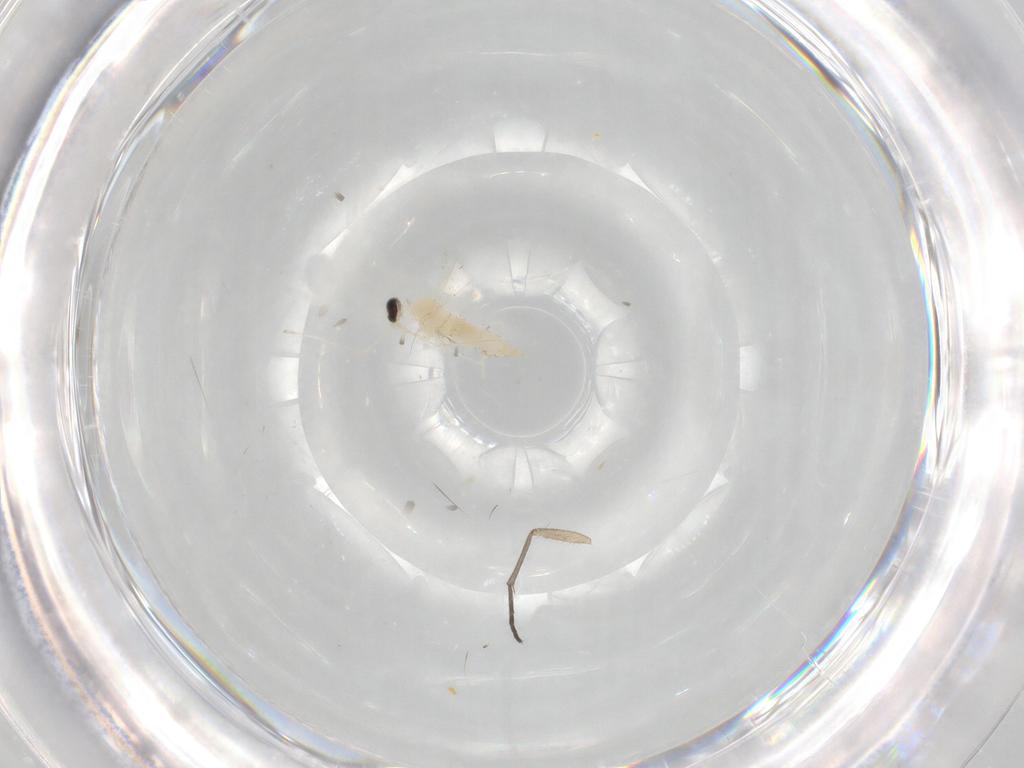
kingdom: Animalia
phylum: Arthropoda
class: Insecta
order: Diptera
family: Cecidomyiidae
